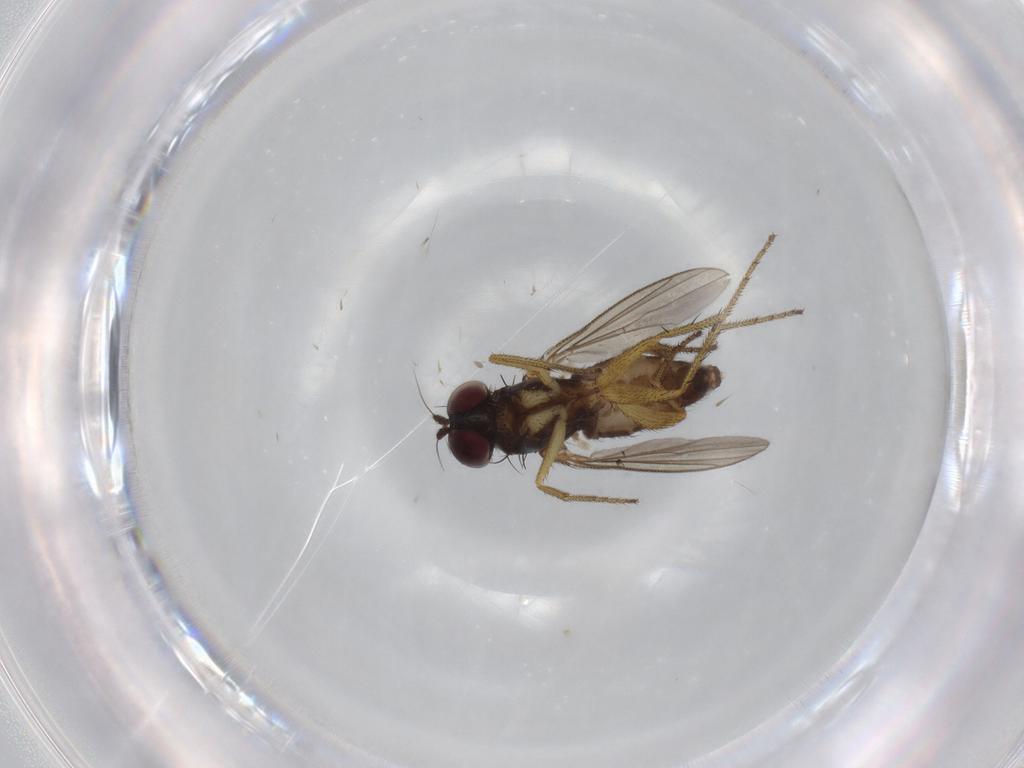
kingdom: Animalia
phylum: Arthropoda
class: Insecta
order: Diptera
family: Dolichopodidae
